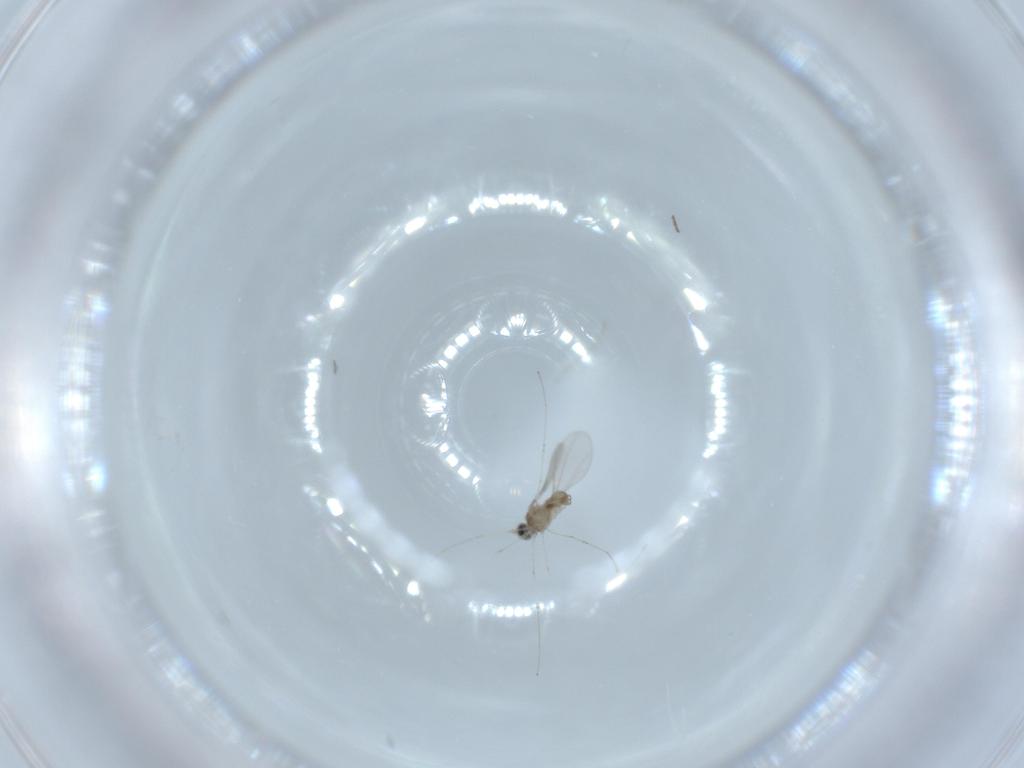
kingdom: Animalia
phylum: Arthropoda
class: Insecta
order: Diptera
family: Cecidomyiidae
